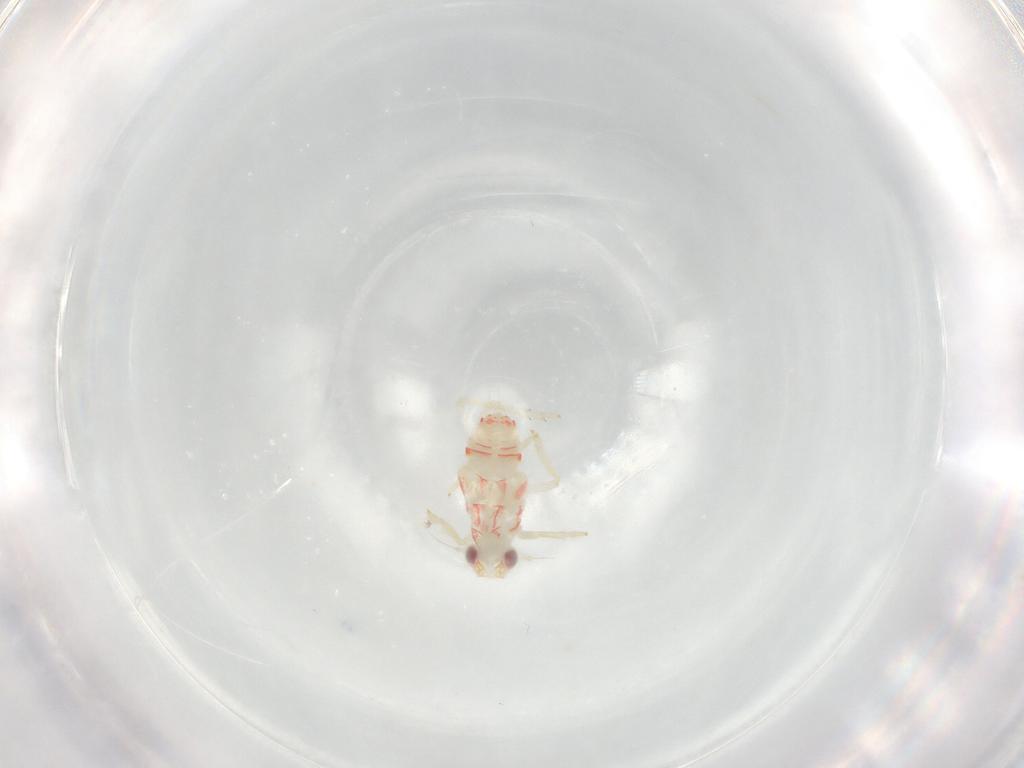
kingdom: Animalia
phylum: Arthropoda
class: Insecta
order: Hemiptera
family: Tropiduchidae
